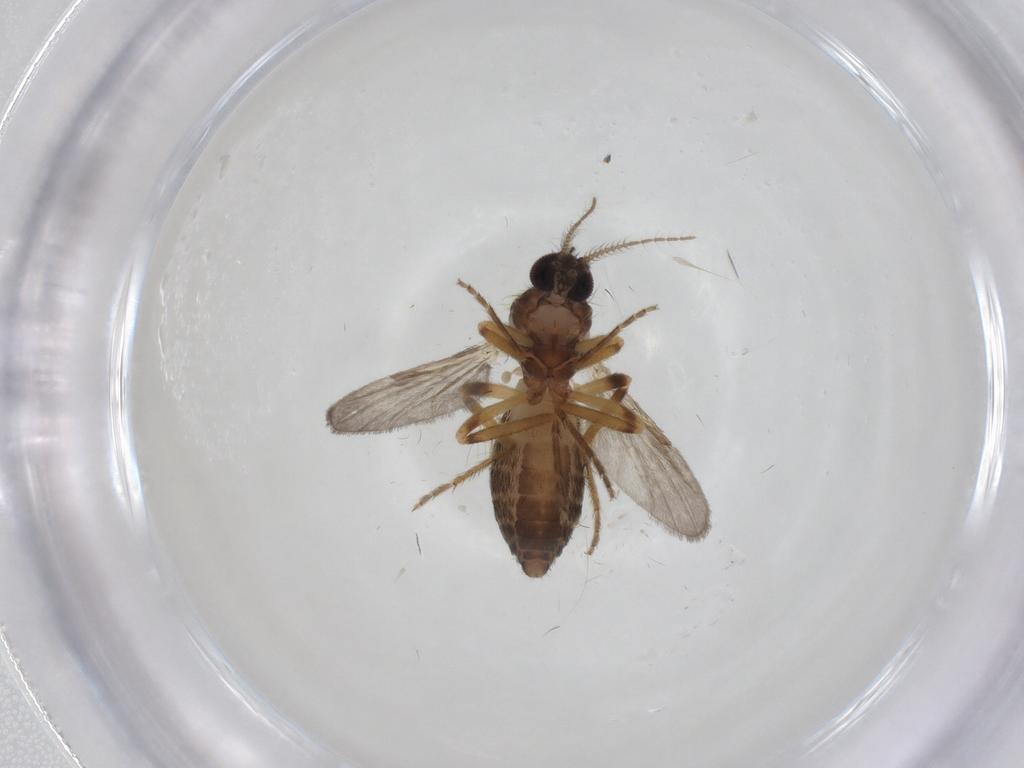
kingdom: Animalia
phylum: Arthropoda
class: Insecta
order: Diptera
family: Ceratopogonidae
